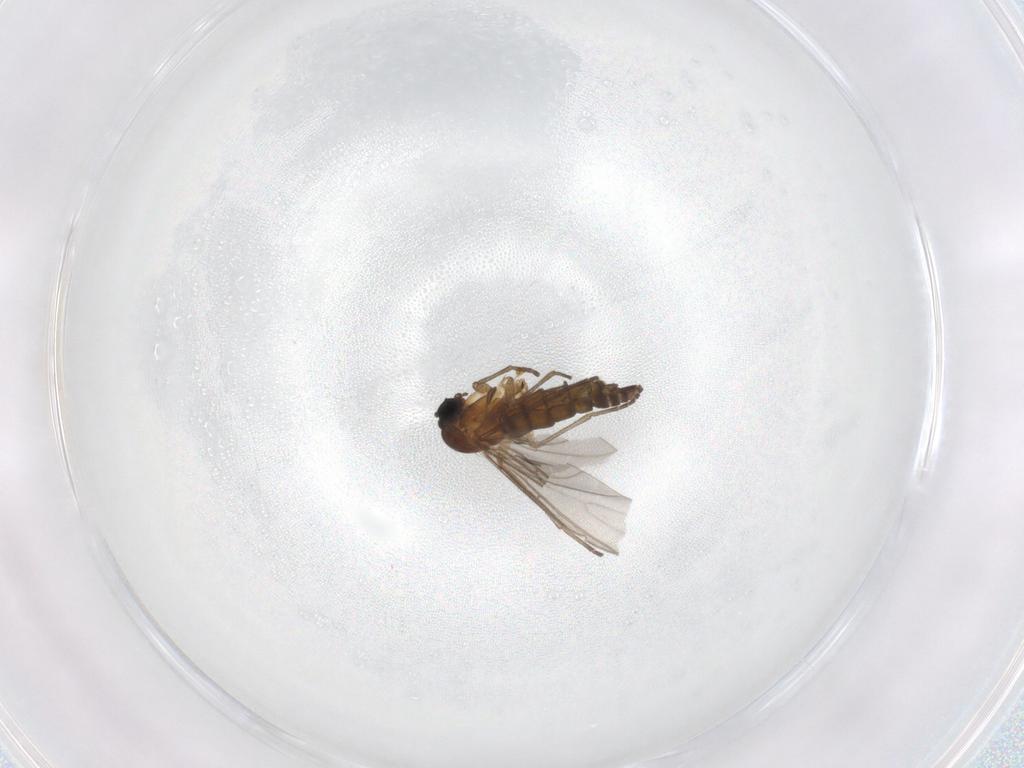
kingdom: Animalia
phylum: Arthropoda
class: Insecta
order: Diptera
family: Sciaridae
